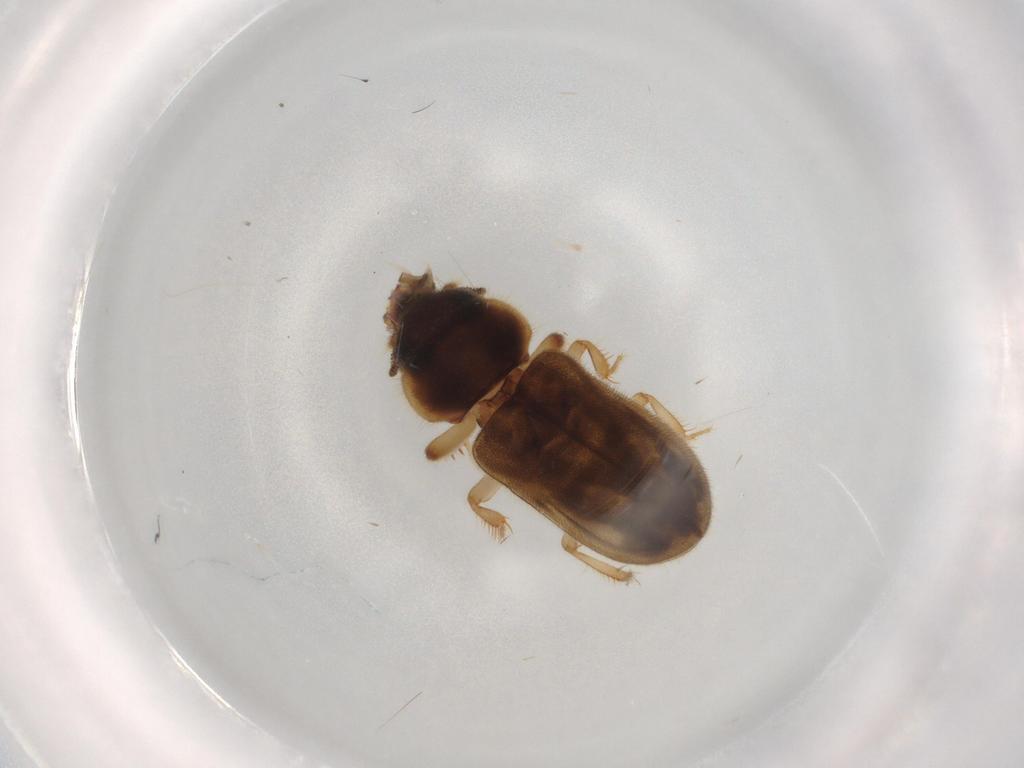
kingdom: Animalia
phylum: Arthropoda
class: Insecta
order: Coleoptera
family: Heteroceridae
